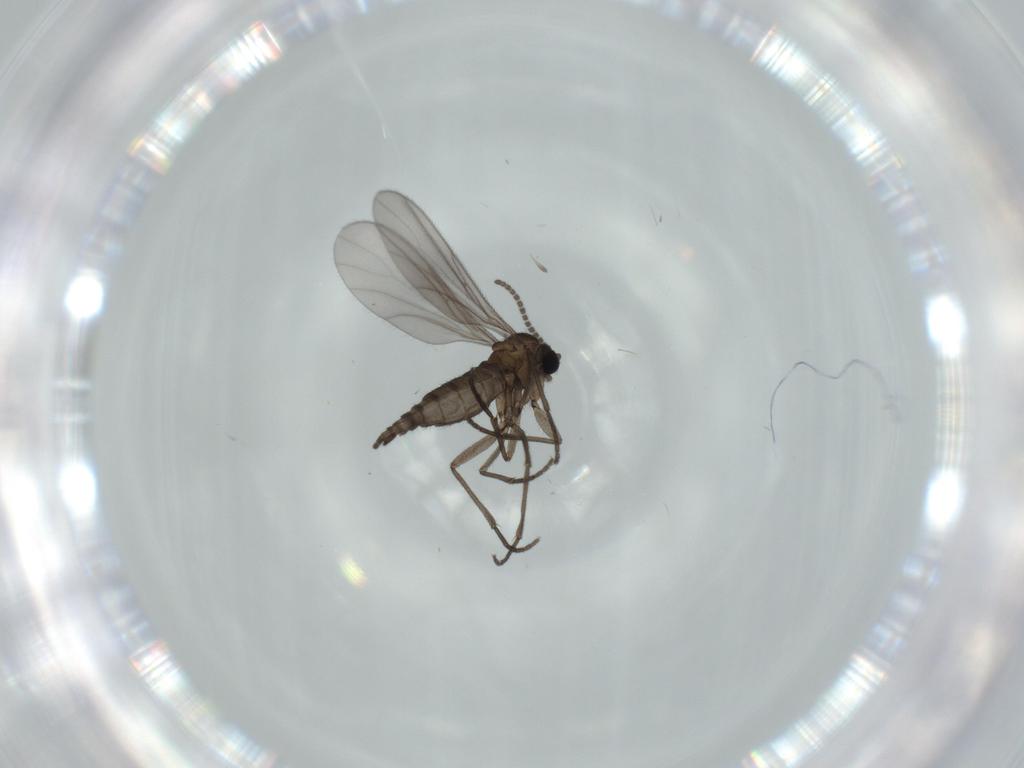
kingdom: Animalia
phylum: Arthropoda
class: Insecta
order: Diptera
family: Sciaridae
